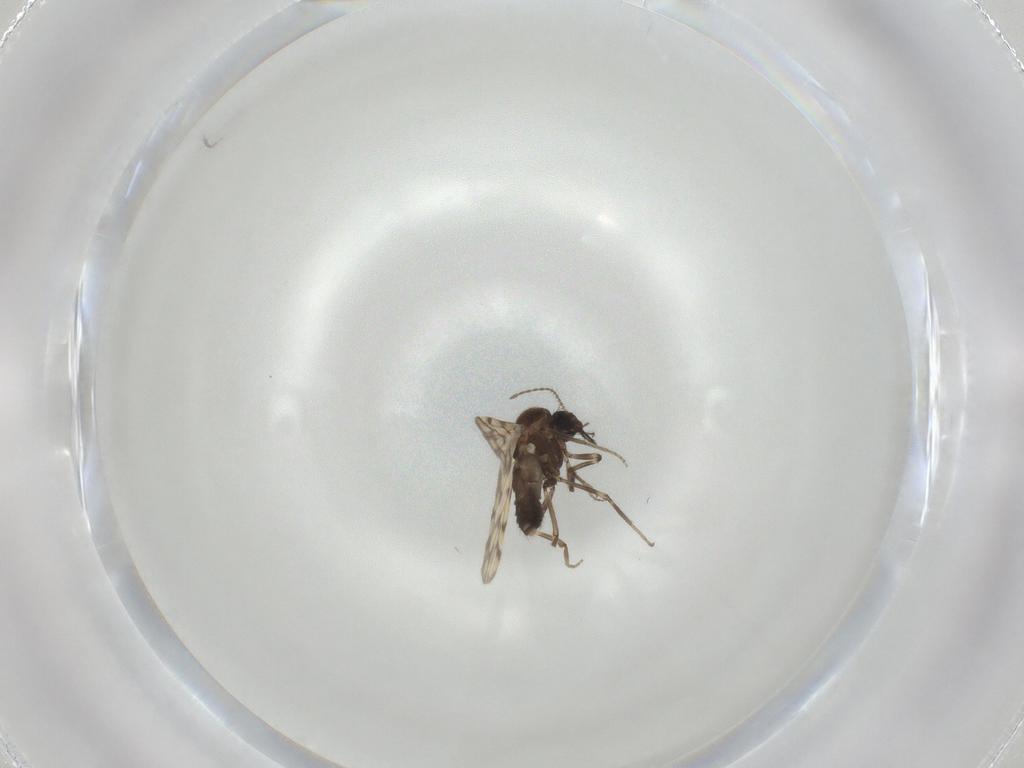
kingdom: Animalia
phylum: Arthropoda
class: Insecta
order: Diptera
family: Ceratopogonidae
